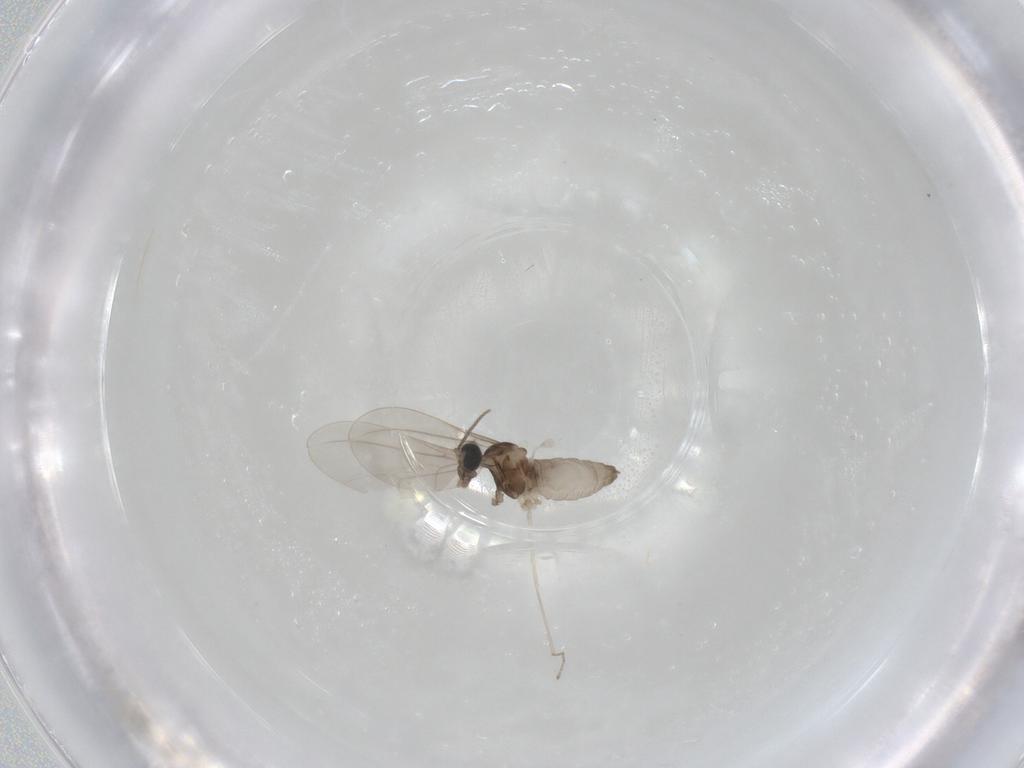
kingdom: Animalia
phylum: Arthropoda
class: Insecta
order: Diptera
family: Cecidomyiidae
